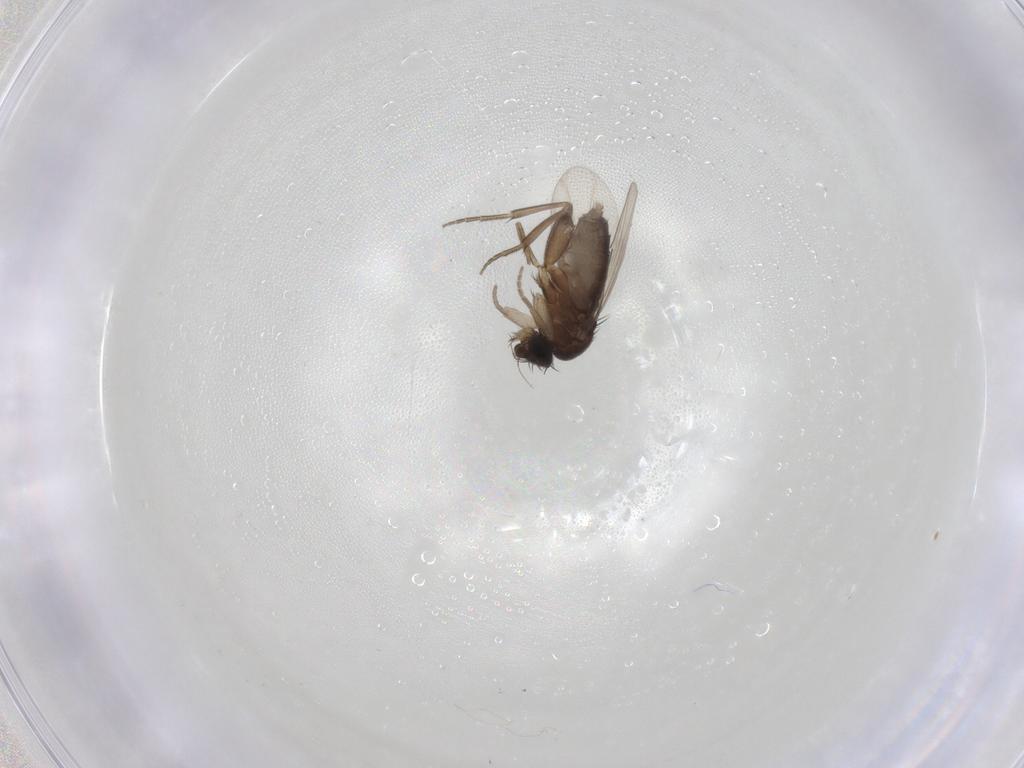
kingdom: Animalia
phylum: Arthropoda
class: Insecta
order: Diptera
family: Phoridae
